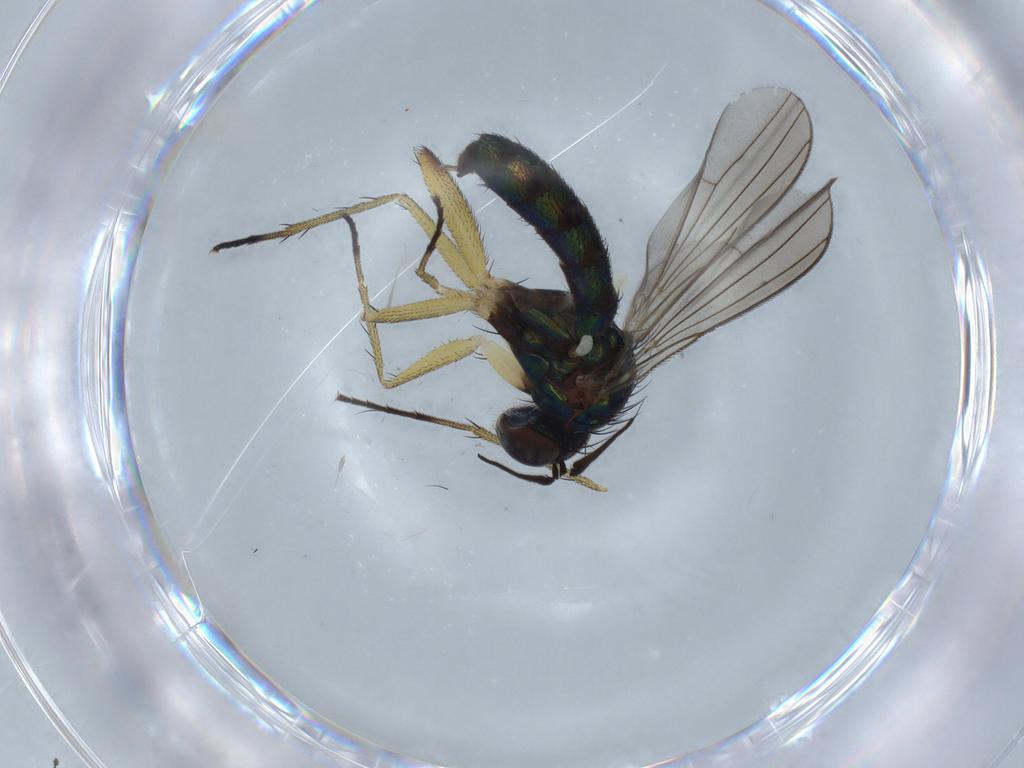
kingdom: Animalia
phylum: Arthropoda
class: Insecta
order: Diptera
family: Dolichopodidae
